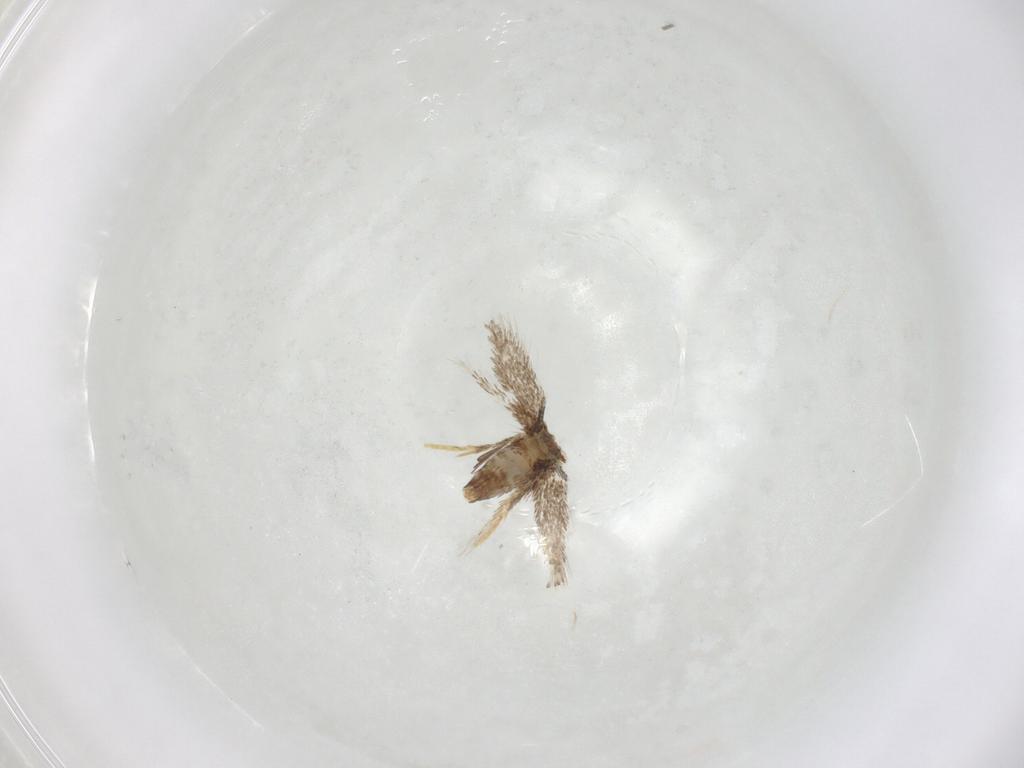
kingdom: Animalia
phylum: Arthropoda
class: Insecta
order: Lepidoptera
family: Nepticulidae
